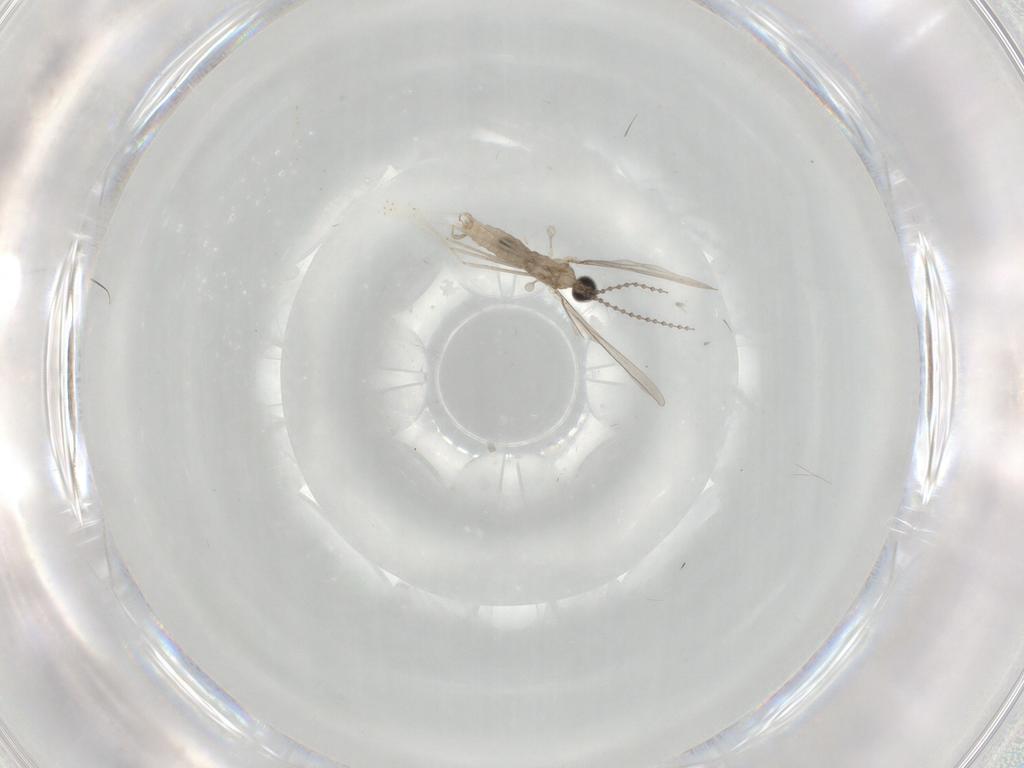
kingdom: Animalia
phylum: Arthropoda
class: Insecta
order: Diptera
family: Cecidomyiidae
